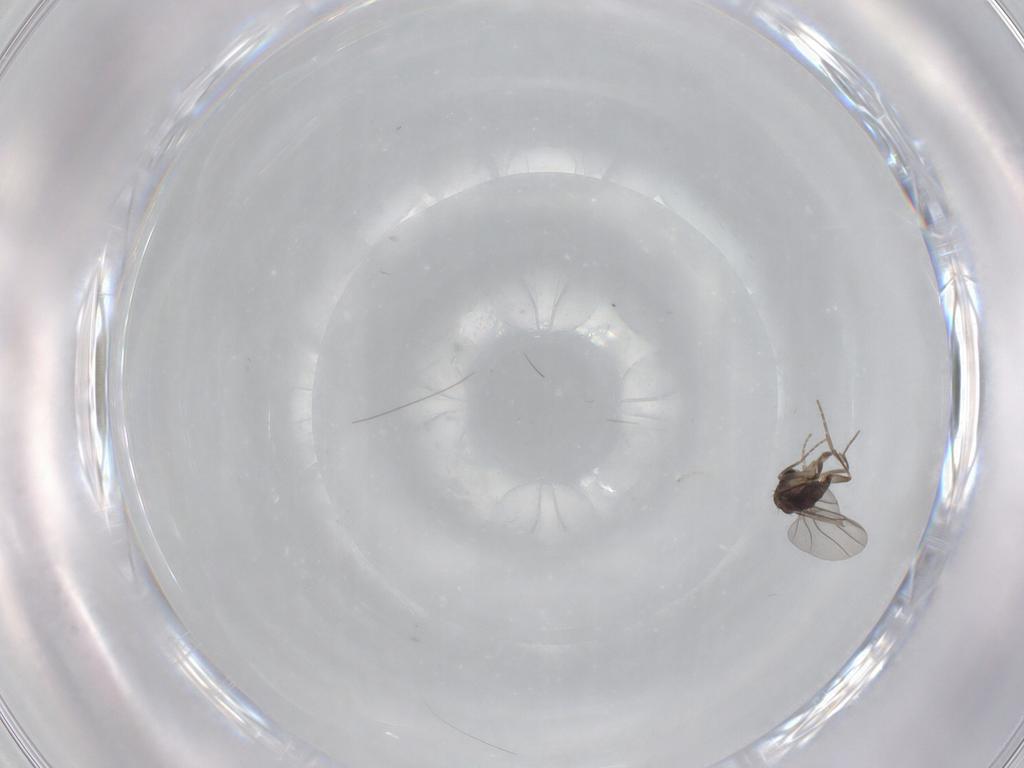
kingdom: Animalia
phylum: Arthropoda
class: Insecta
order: Diptera
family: Cecidomyiidae
